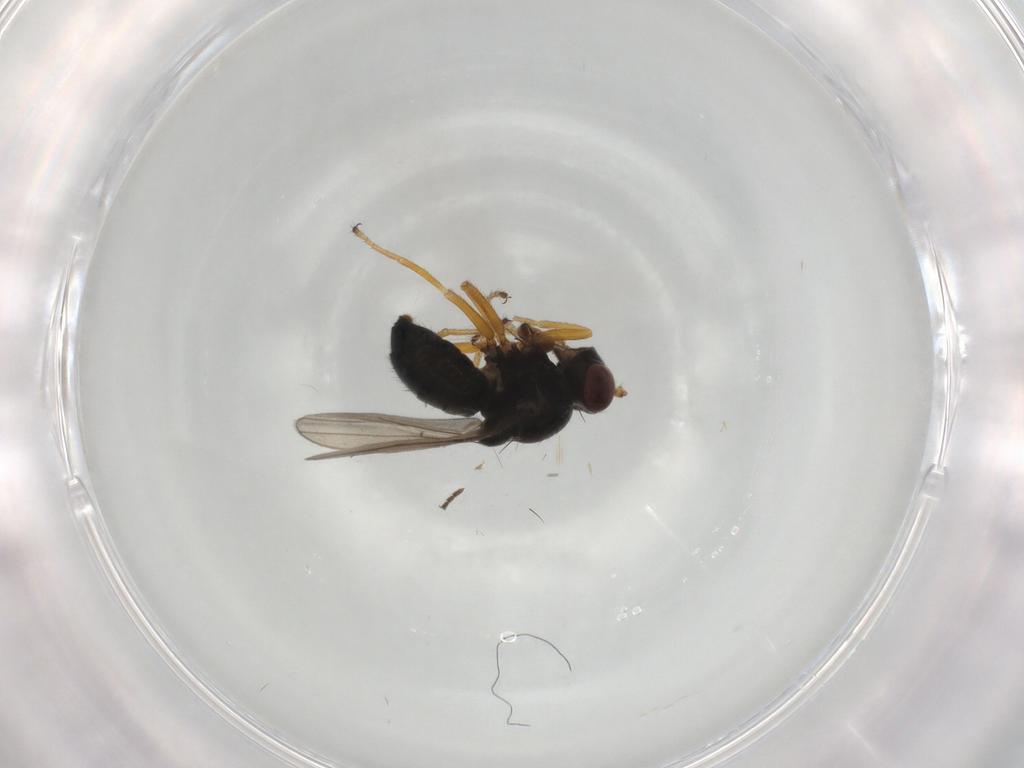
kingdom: Animalia
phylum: Arthropoda
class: Insecta
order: Diptera
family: Ephydridae
